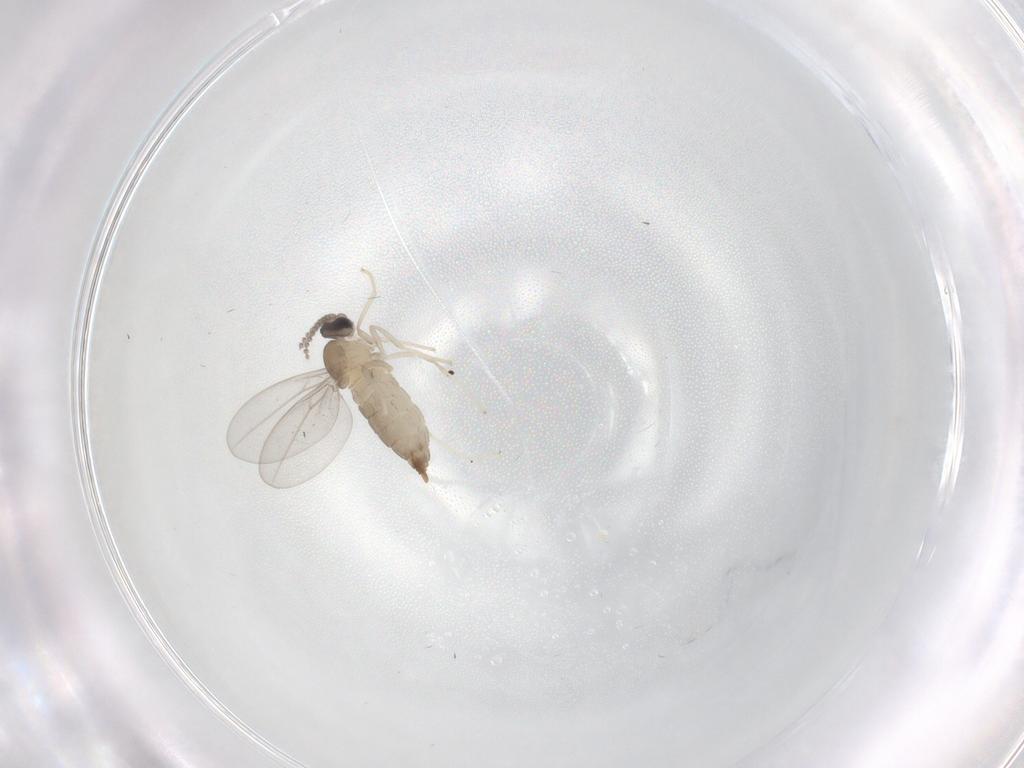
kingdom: Animalia
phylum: Arthropoda
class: Insecta
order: Diptera
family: Cecidomyiidae
